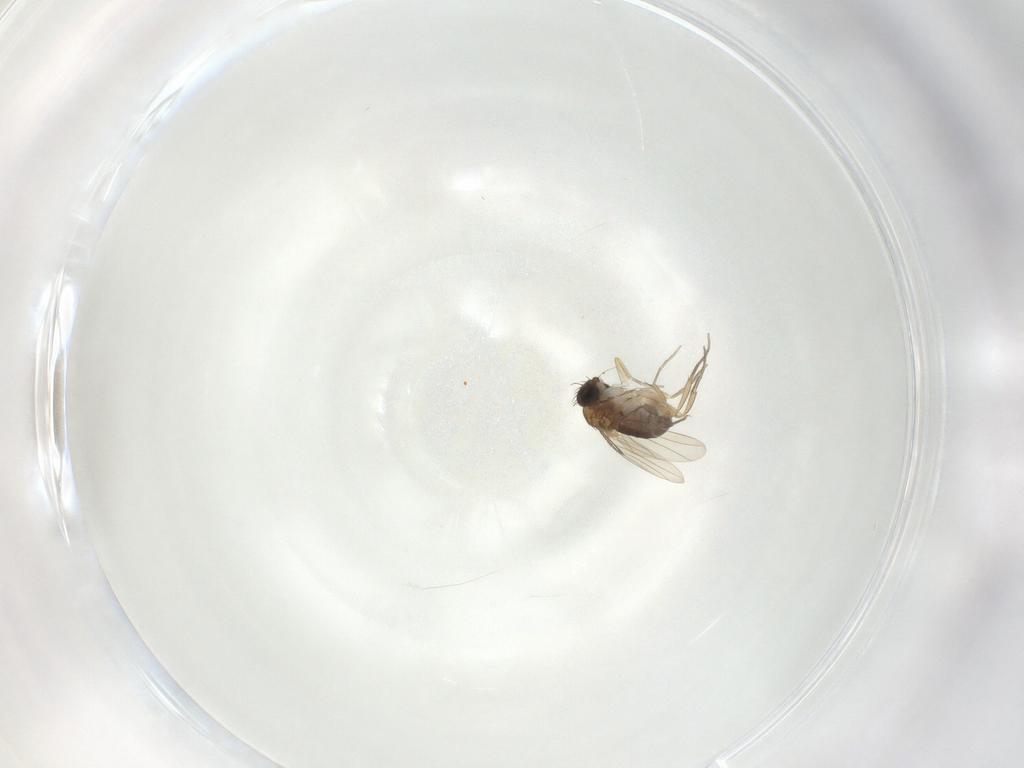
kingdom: Animalia
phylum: Arthropoda
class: Insecta
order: Diptera
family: Phoridae
